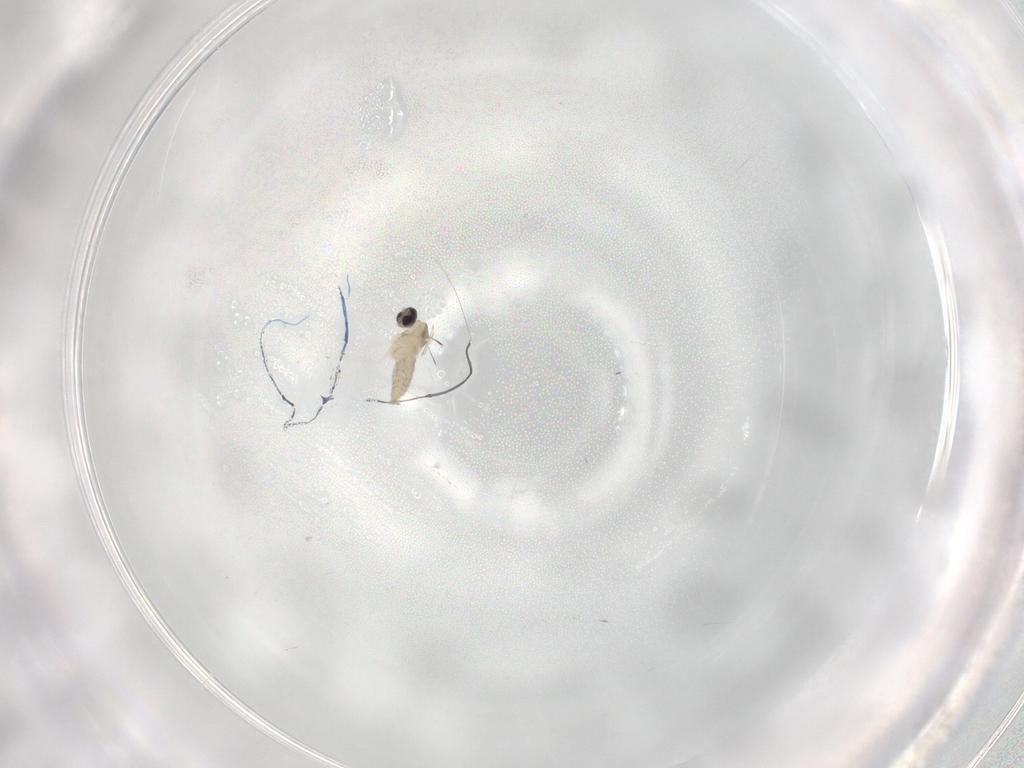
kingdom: Animalia
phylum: Arthropoda
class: Insecta
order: Diptera
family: Cecidomyiidae
